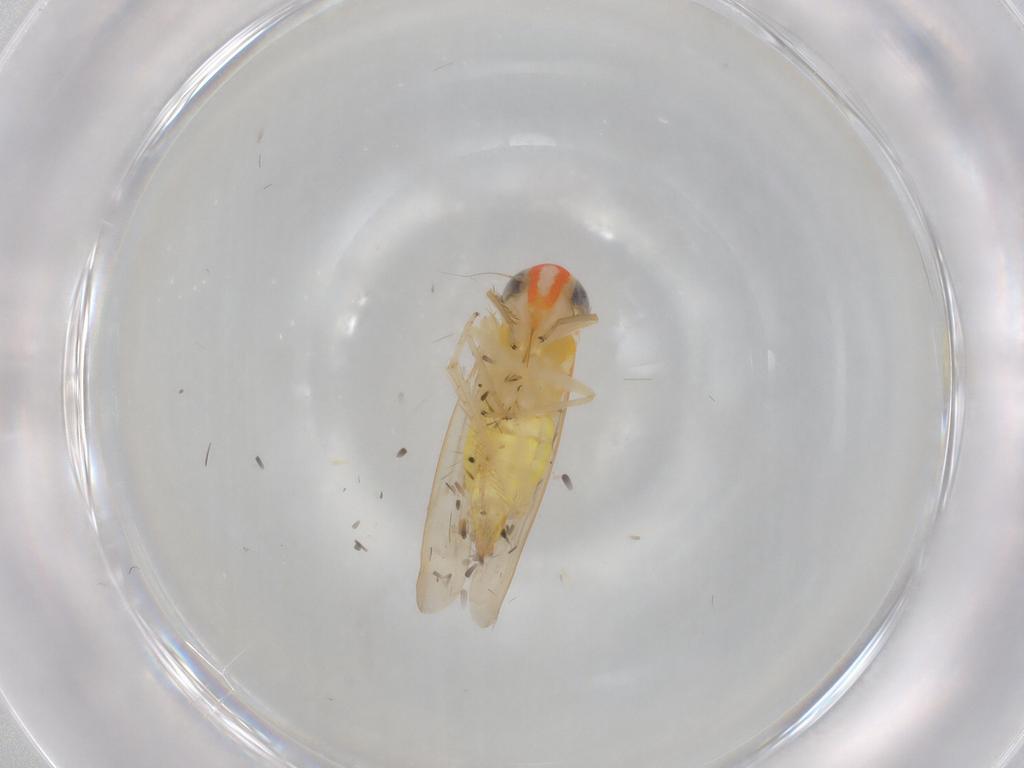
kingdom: Animalia
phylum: Arthropoda
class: Insecta
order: Hemiptera
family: Cicadellidae
